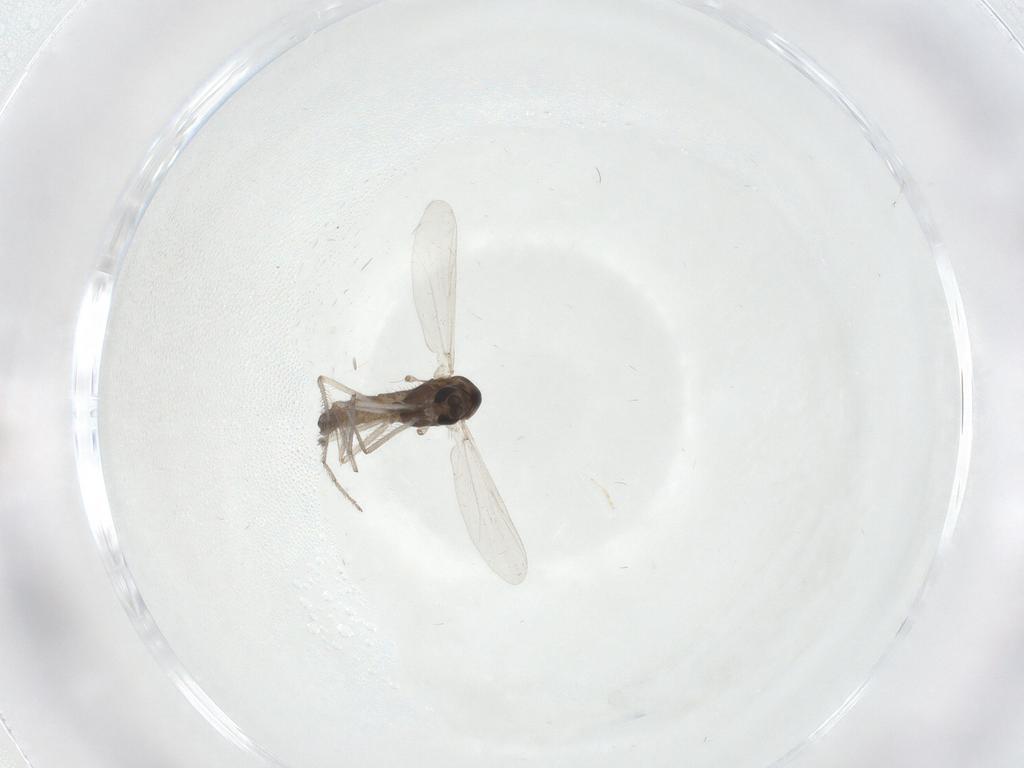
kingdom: Animalia
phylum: Arthropoda
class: Insecta
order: Diptera
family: Chironomidae
